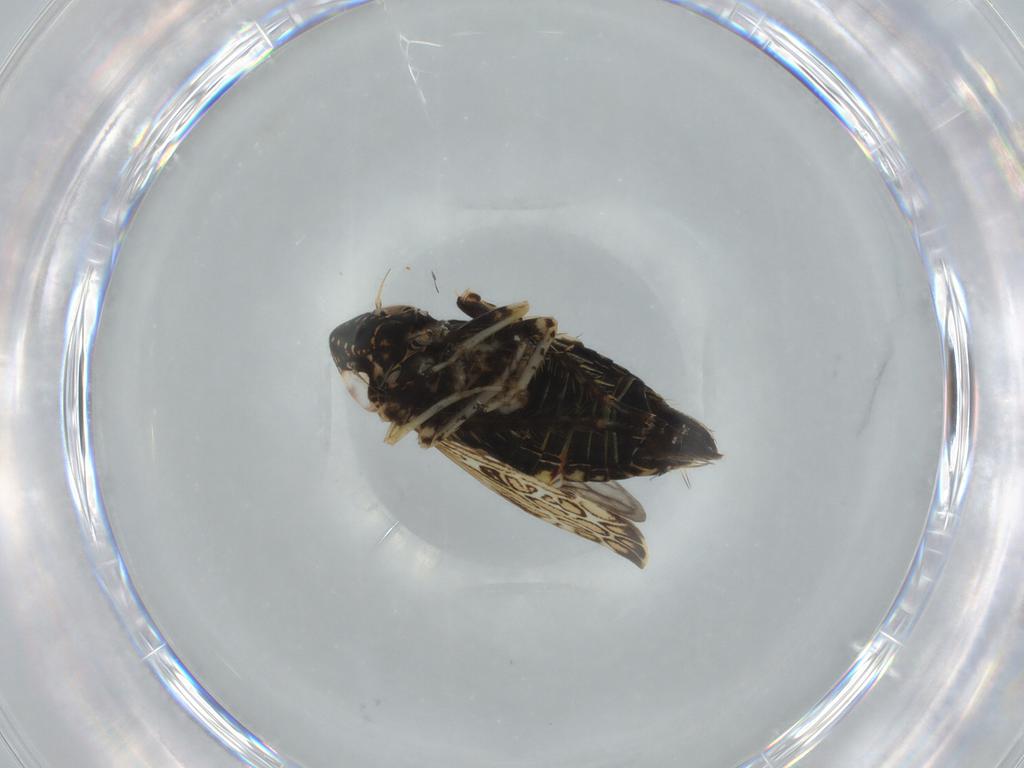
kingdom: Animalia
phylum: Arthropoda
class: Insecta
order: Hemiptera
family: Cicadellidae
